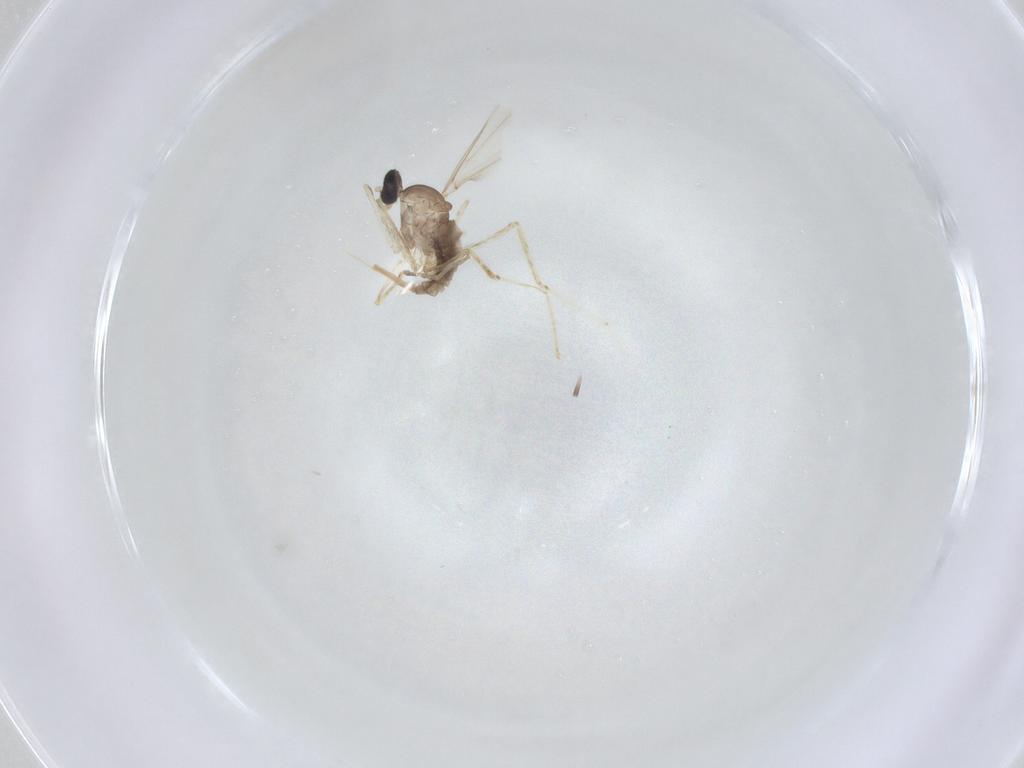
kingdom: Animalia
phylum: Arthropoda
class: Insecta
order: Diptera
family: Cecidomyiidae
